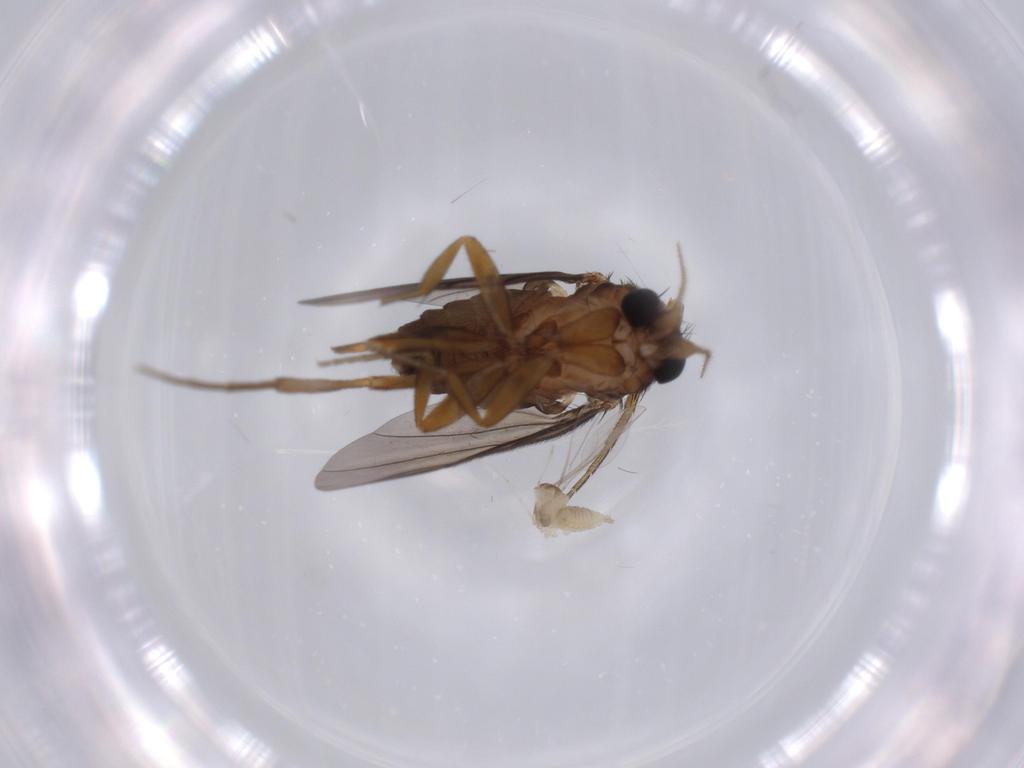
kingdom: Animalia
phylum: Arthropoda
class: Insecta
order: Diptera
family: Cecidomyiidae
